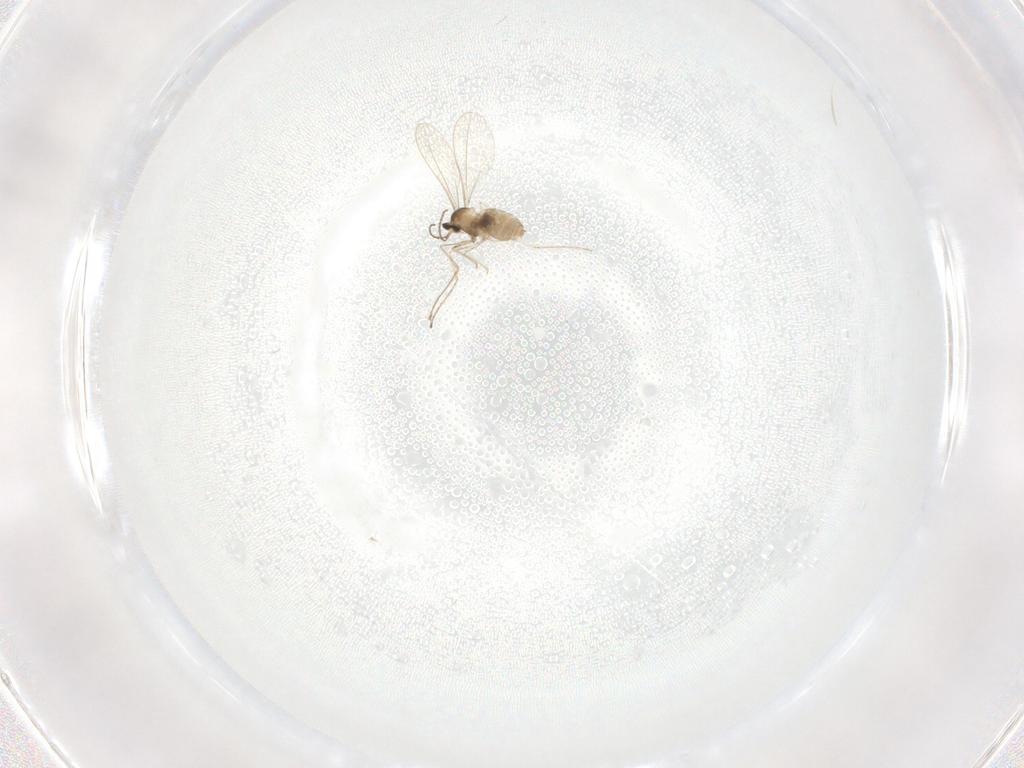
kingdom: Animalia
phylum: Arthropoda
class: Insecta
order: Diptera
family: Cecidomyiidae
